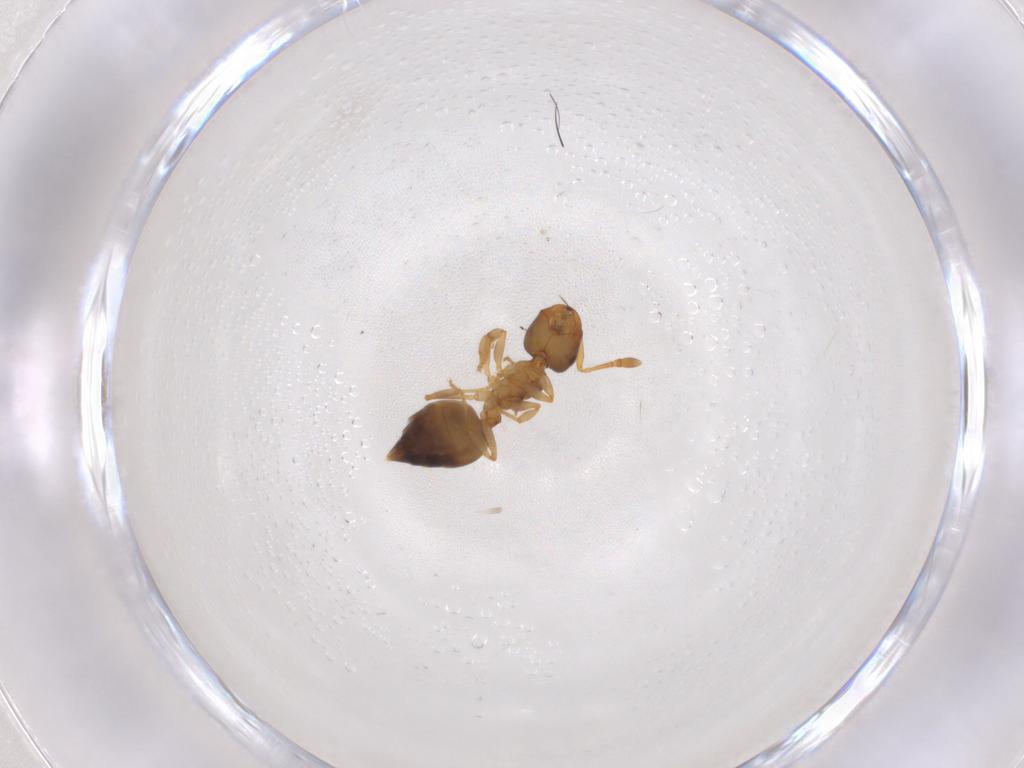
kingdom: Animalia
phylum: Arthropoda
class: Insecta
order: Hymenoptera
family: Formicidae
